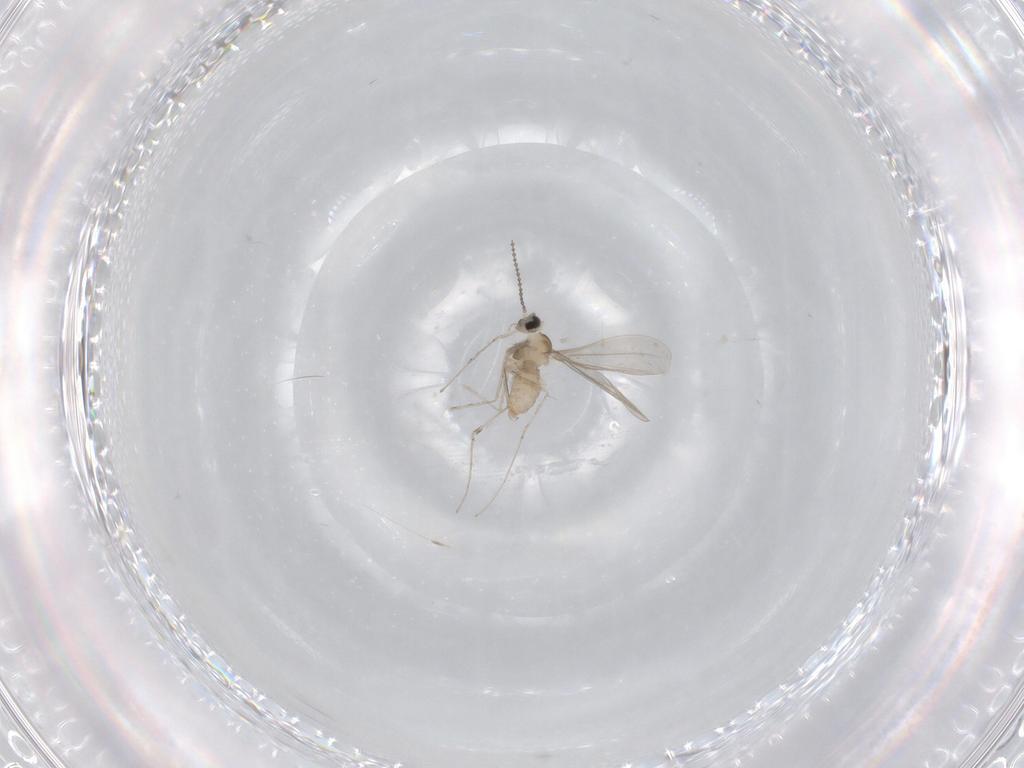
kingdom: Animalia
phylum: Arthropoda
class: Insecta
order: Diptera
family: Cecidomyiidae
